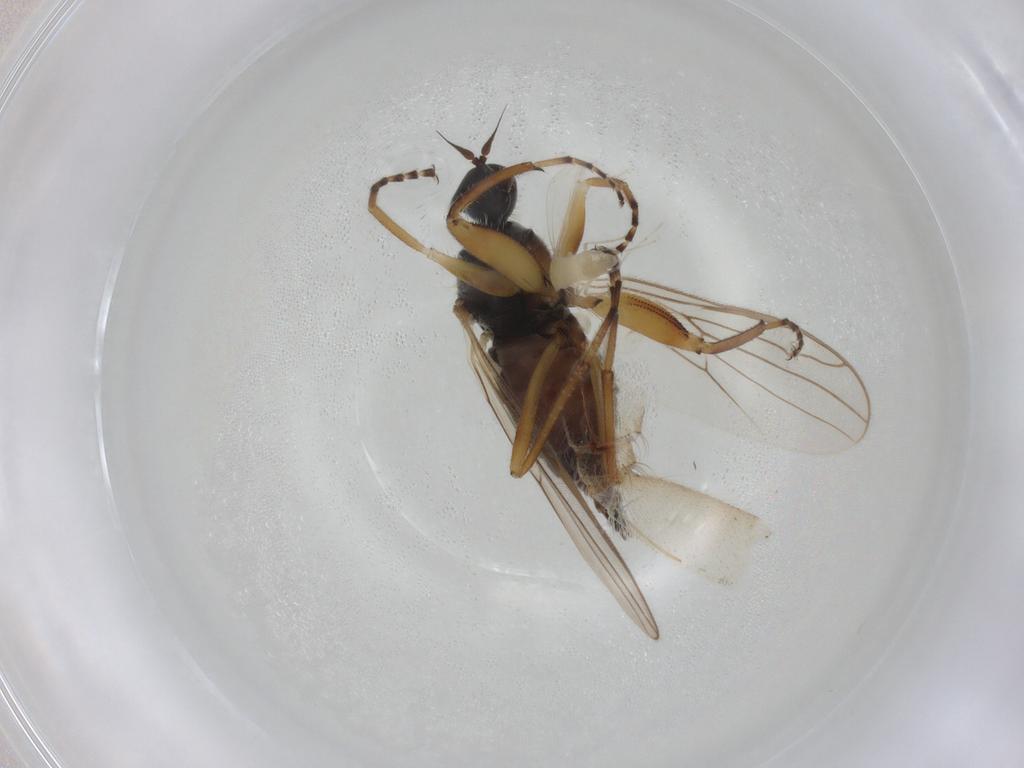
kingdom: Animalia
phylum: Arthropoda
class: Insecta
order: Diptera
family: Hybotidae
